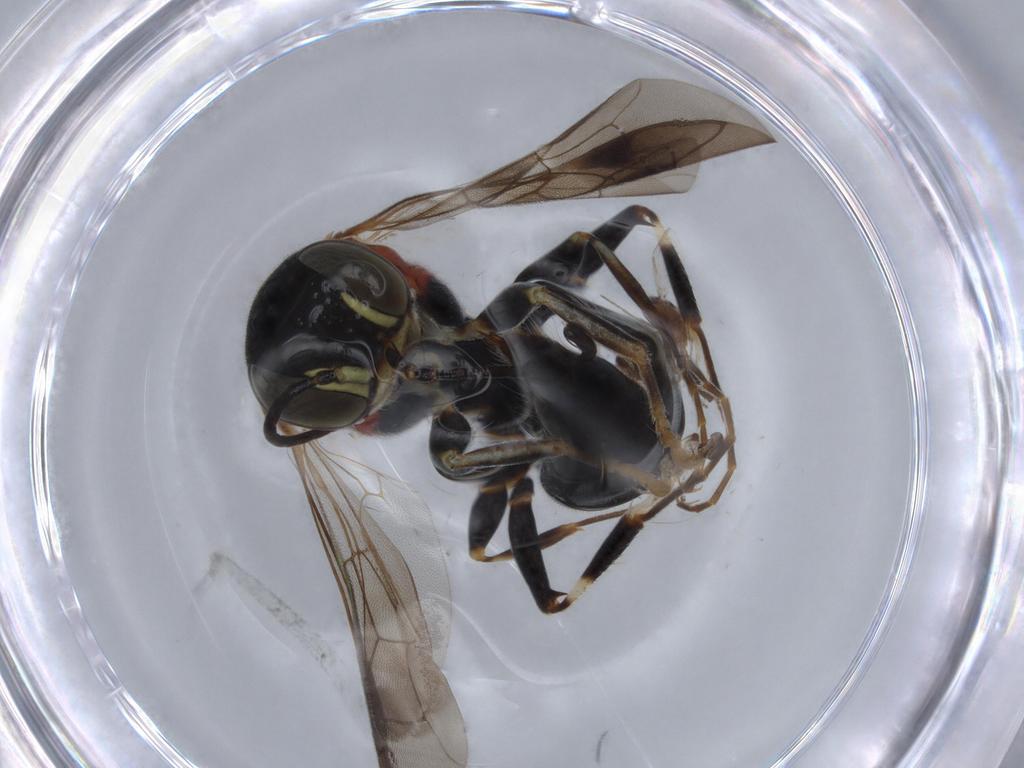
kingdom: Animalia
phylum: Arthropoda
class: Insecta
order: Hymenoptera
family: Bembicidae
